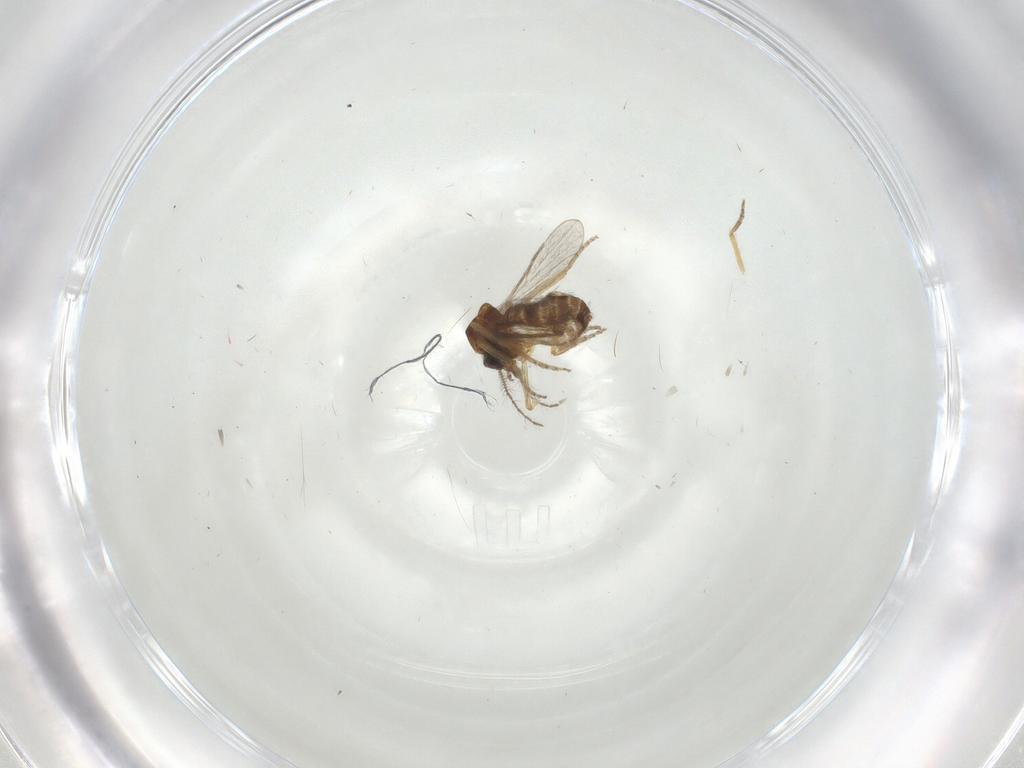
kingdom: Animalia
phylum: Arthropoda
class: Insecta
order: Diptera
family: Ceratopogonidae
